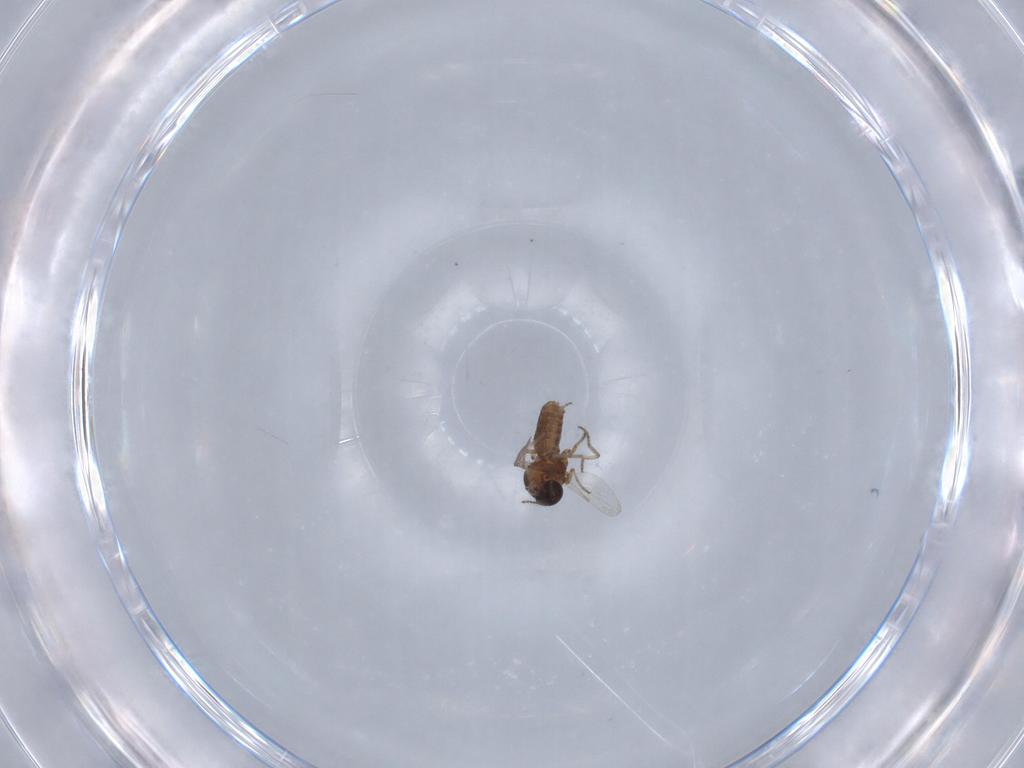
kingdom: Animalia
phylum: Arthropoda
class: Insecta
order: Diptera
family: Ceratopogonidae
